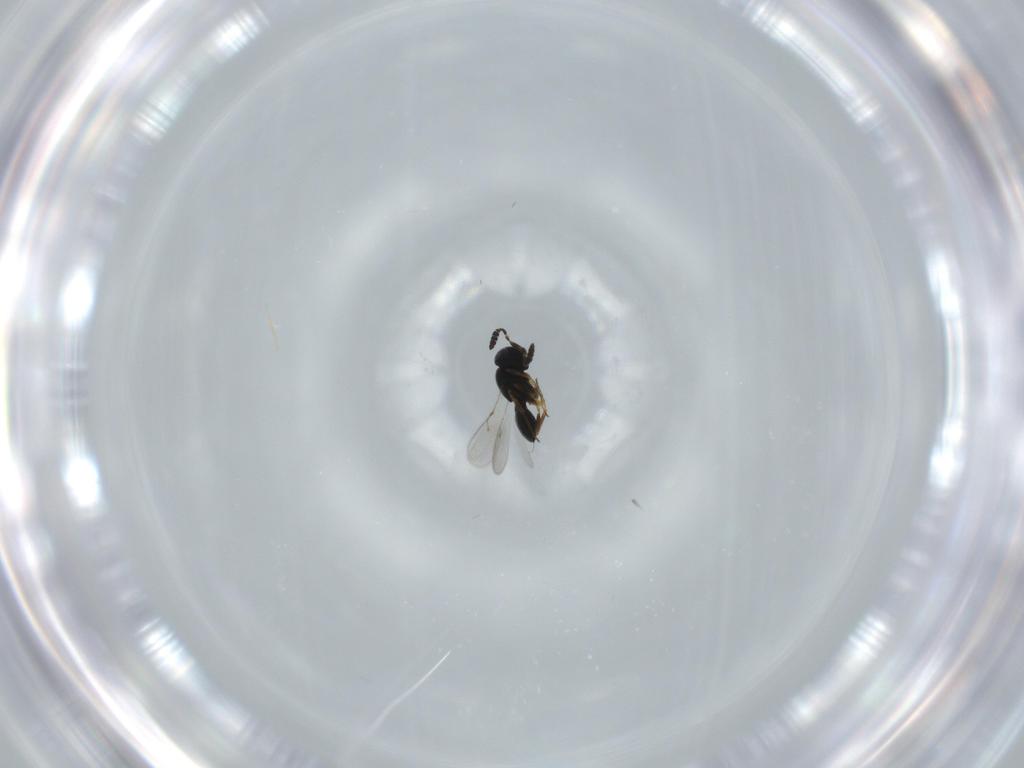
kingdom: Animalia
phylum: Arthropoda
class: Insecta
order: Hymenoptera
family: Scelionidae
